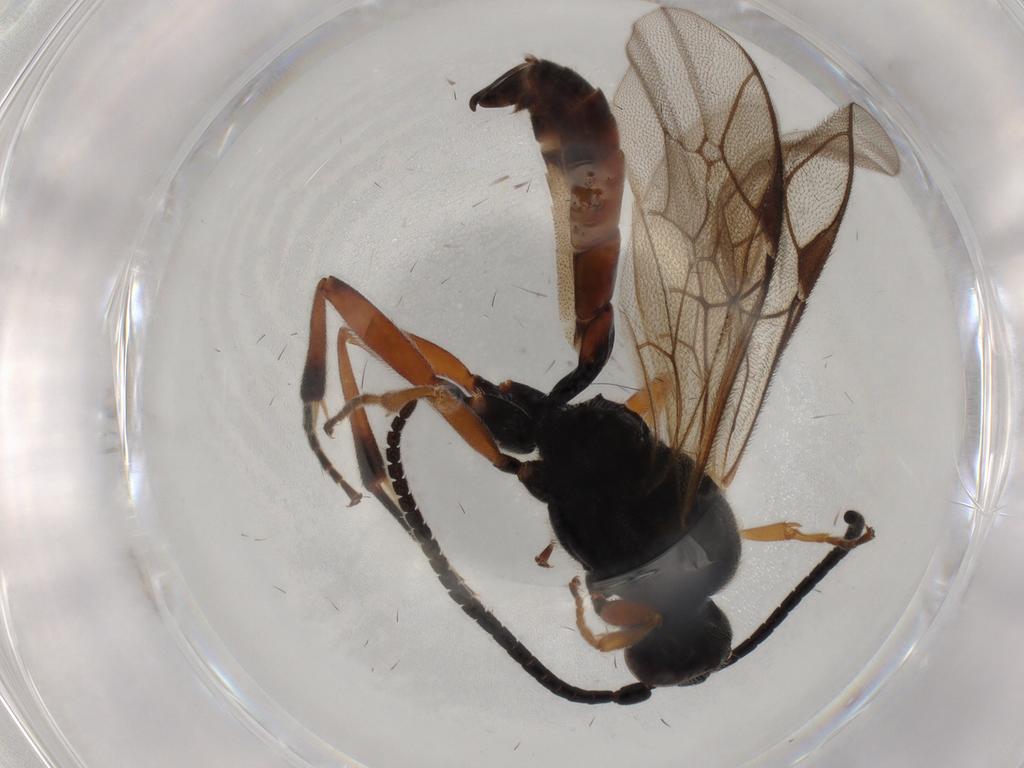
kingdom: Animalia
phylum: Arthropoda
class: Insecta
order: Hymenoptera
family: Ichneumonidae
